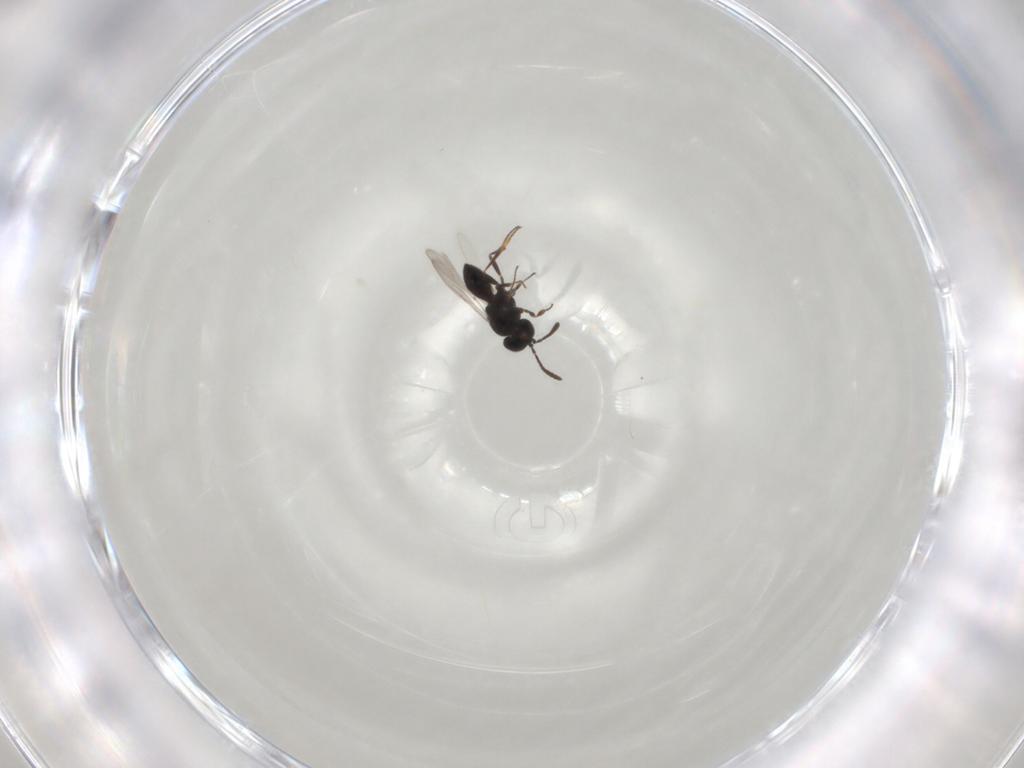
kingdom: Animalia
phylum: Arthropoda
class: Insecta
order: Hymenoptera
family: Scelionidae
